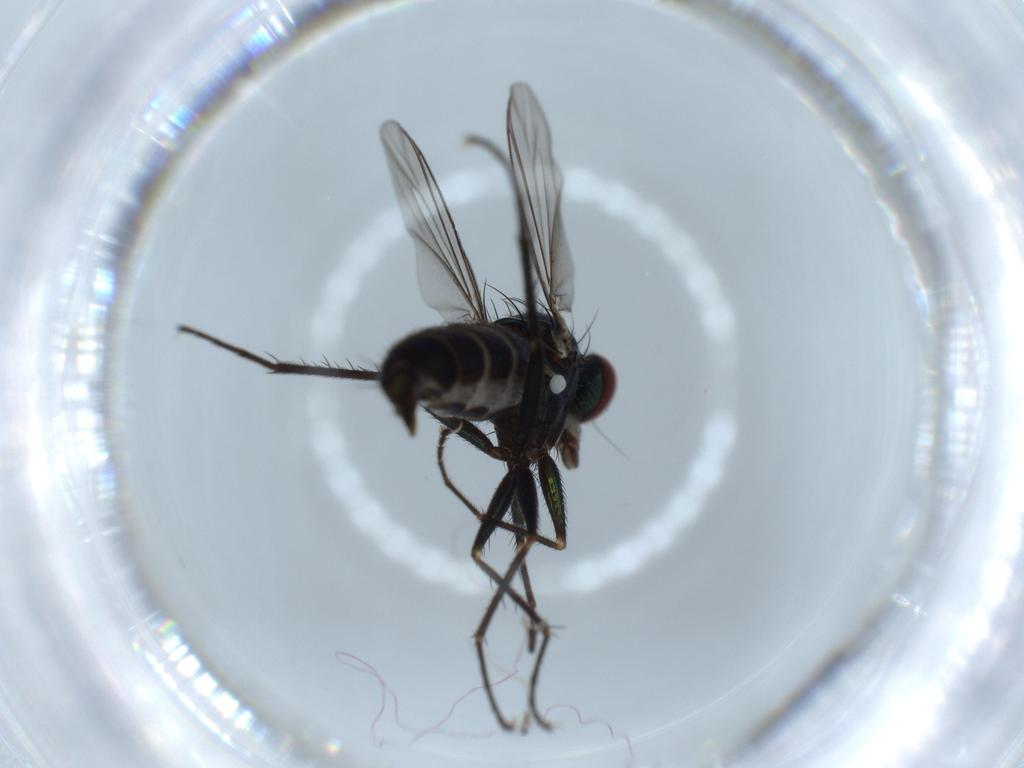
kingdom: Animalia
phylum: Arthropoda
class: Insecta
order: Diptera
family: Dolichopodidae
